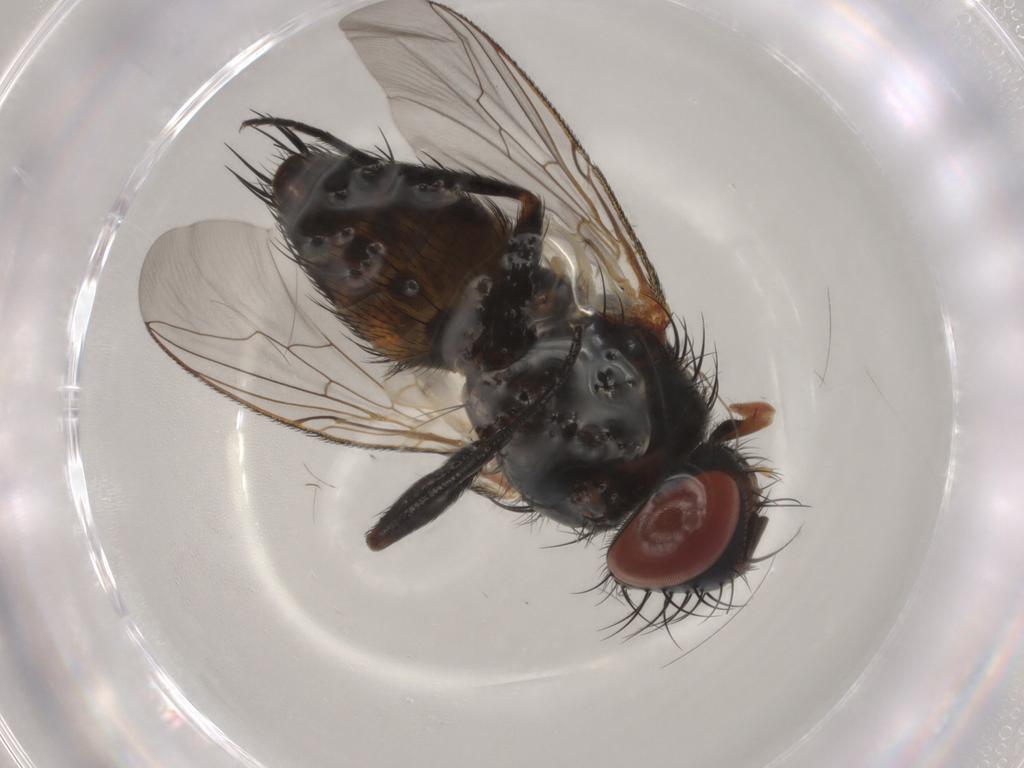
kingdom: Animalia
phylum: Arthropoda
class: Insecta
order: Diptera
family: Sarcophagidae
